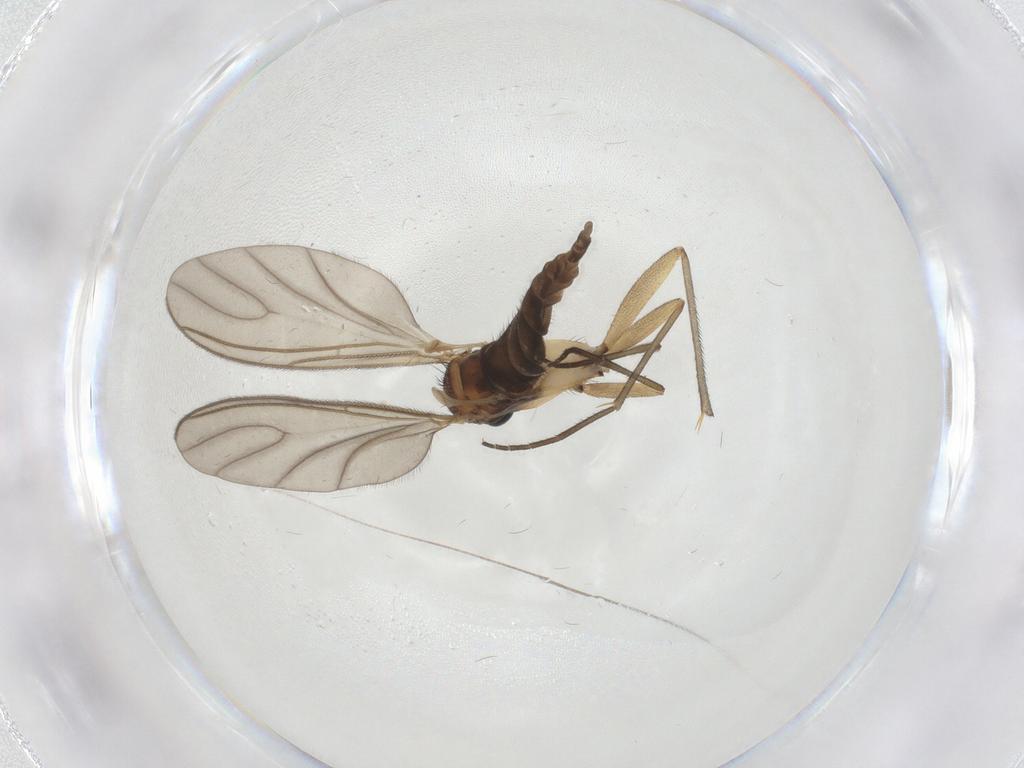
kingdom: Animalia
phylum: Arthropoda
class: Insecta
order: Diptera
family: Sciaridae
